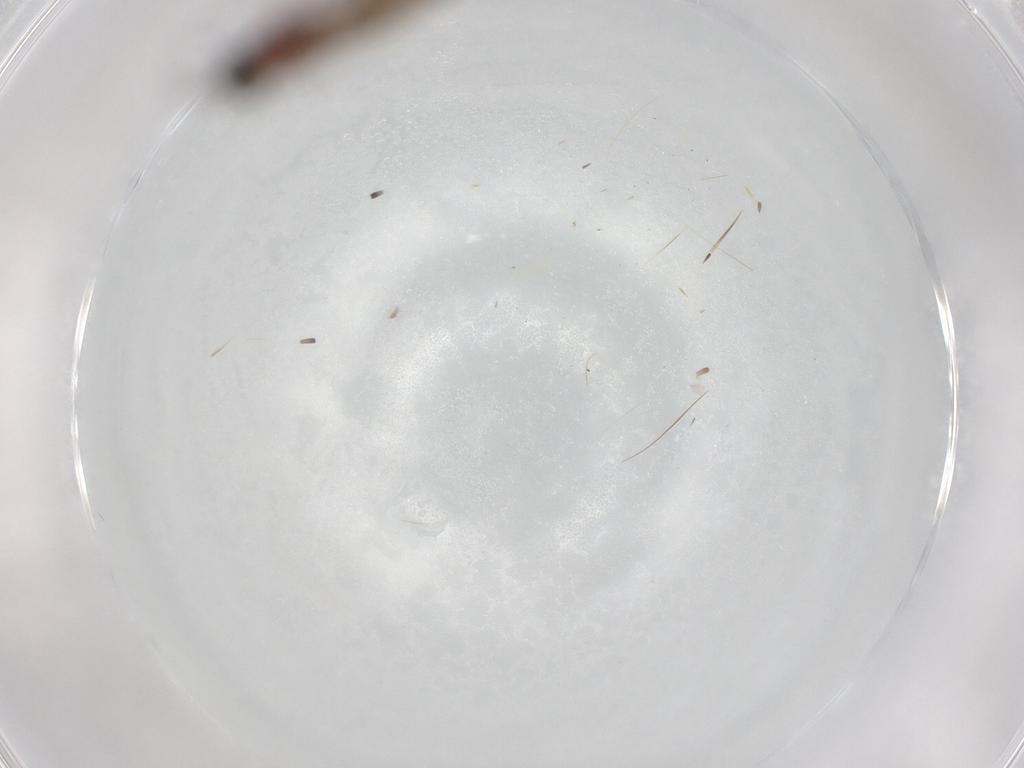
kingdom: Animalia
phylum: Arthropoda
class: Insecta
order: Diptera
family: Sciaridae
